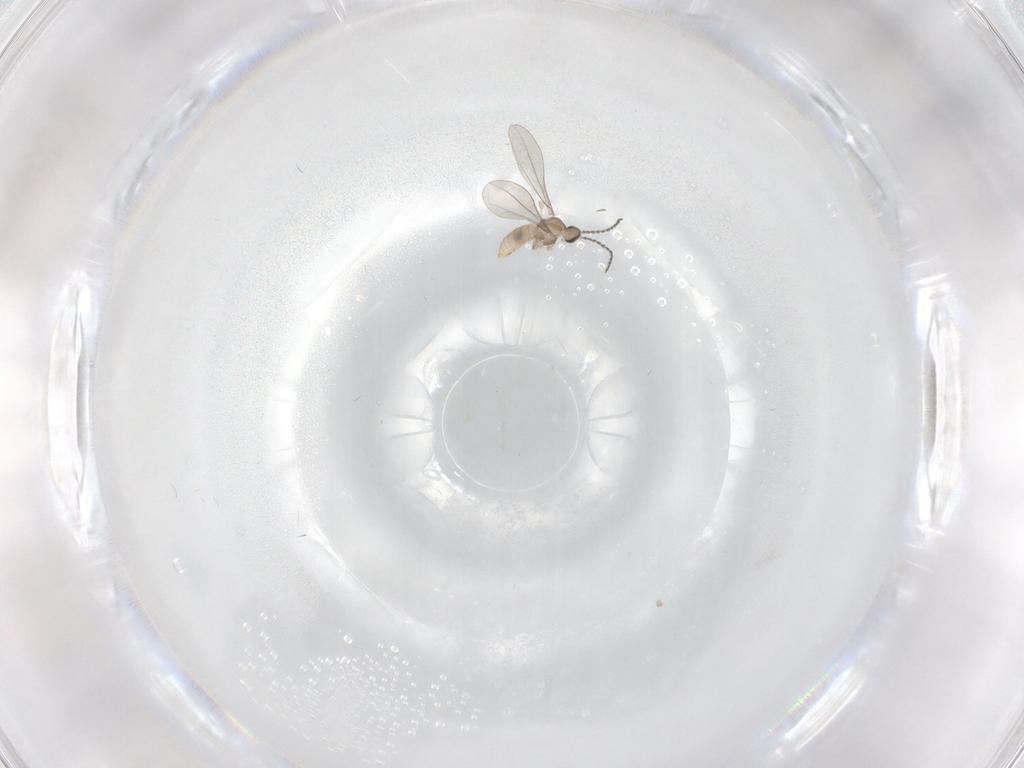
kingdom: Animalia
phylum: Arthropoda
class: Insecta
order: Diptera
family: Cecidomyiidae
